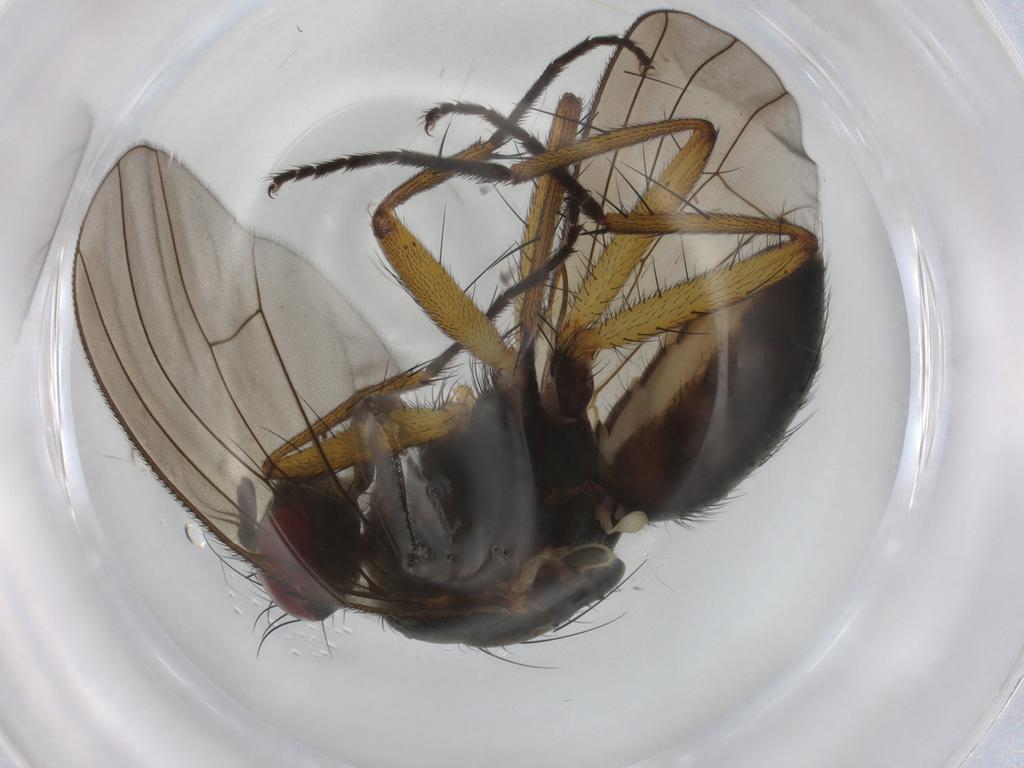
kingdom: Animalia
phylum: Arthropoda
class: Insecta
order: Diptera
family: Muscidae
